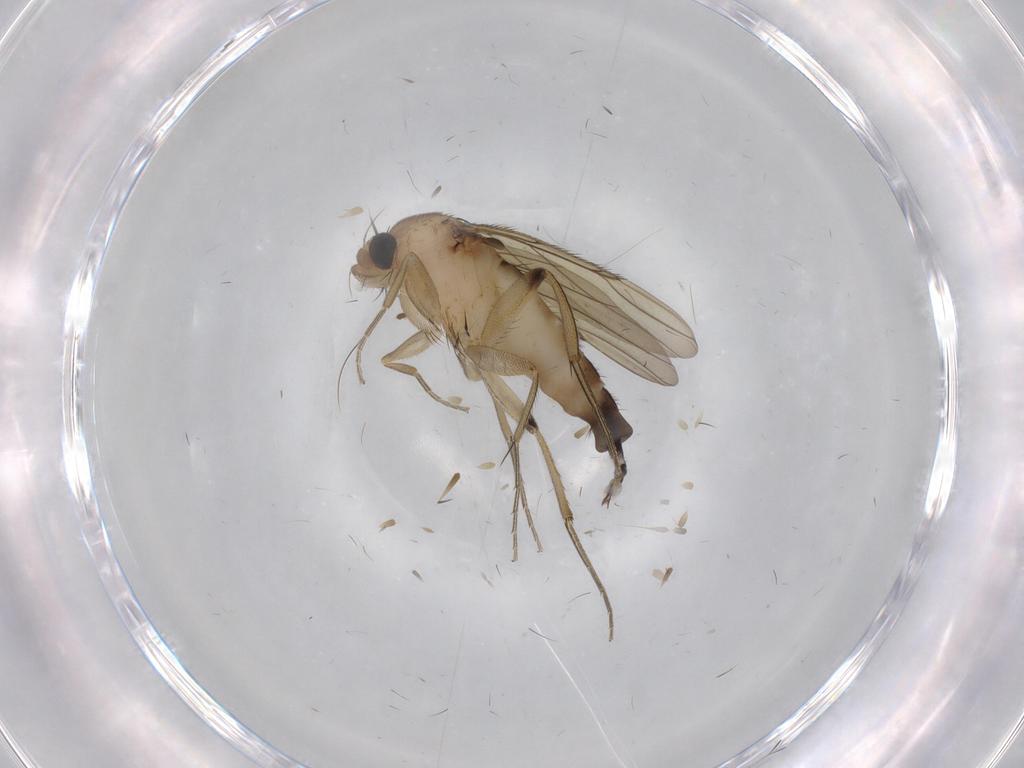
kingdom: Animalia
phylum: Arthropoda
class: Insecta
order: Diptera
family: Phoridae
